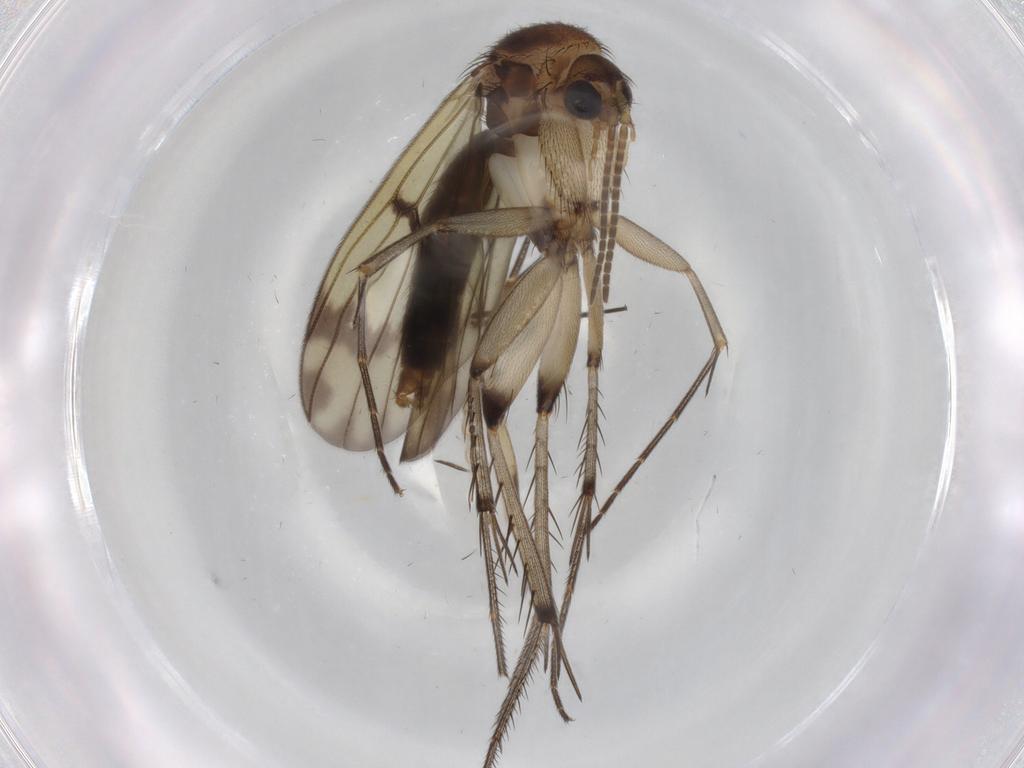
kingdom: Animalia
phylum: Arthropoda
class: Insecta
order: Diptera
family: Chironomidae
